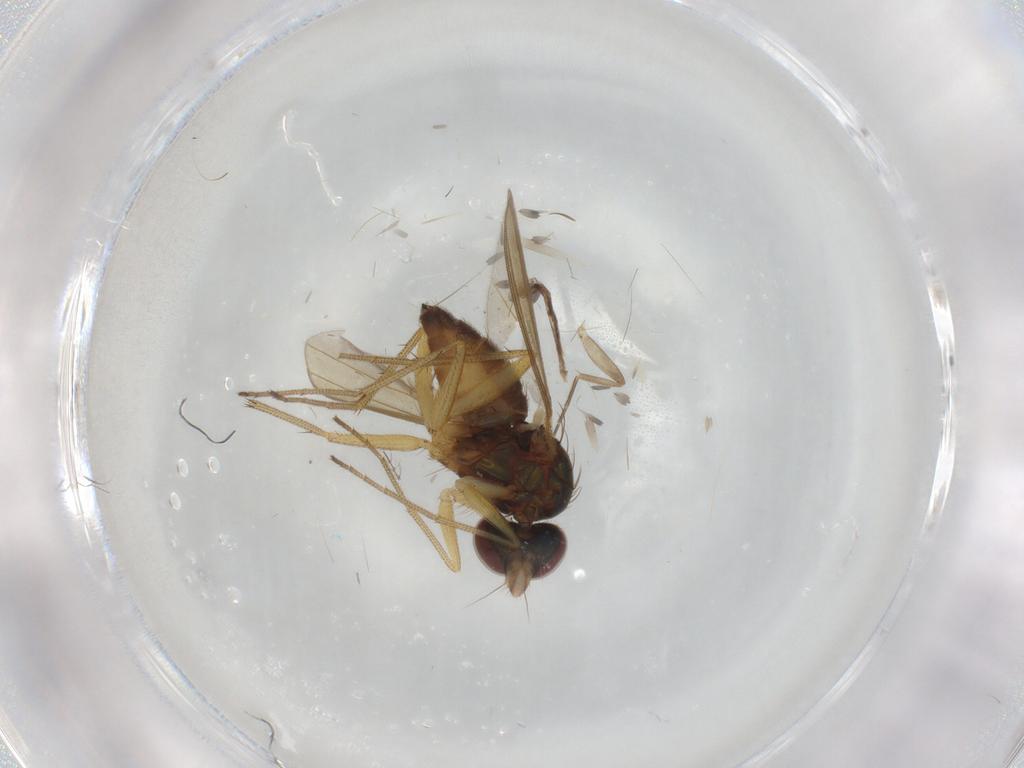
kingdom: Animalia
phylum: Arthropoda
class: Insecta
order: Diptera
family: Dolichopodidae
